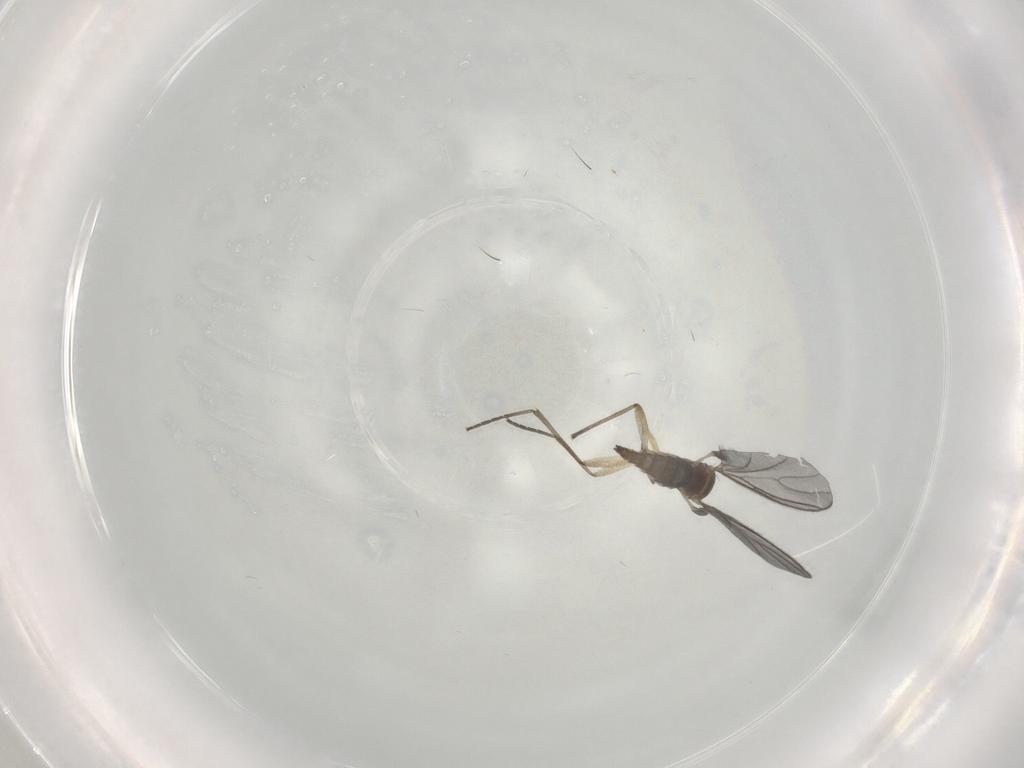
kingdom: Animalia
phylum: Arthropoda
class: Insecta
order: Diptera
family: Sciaridae
